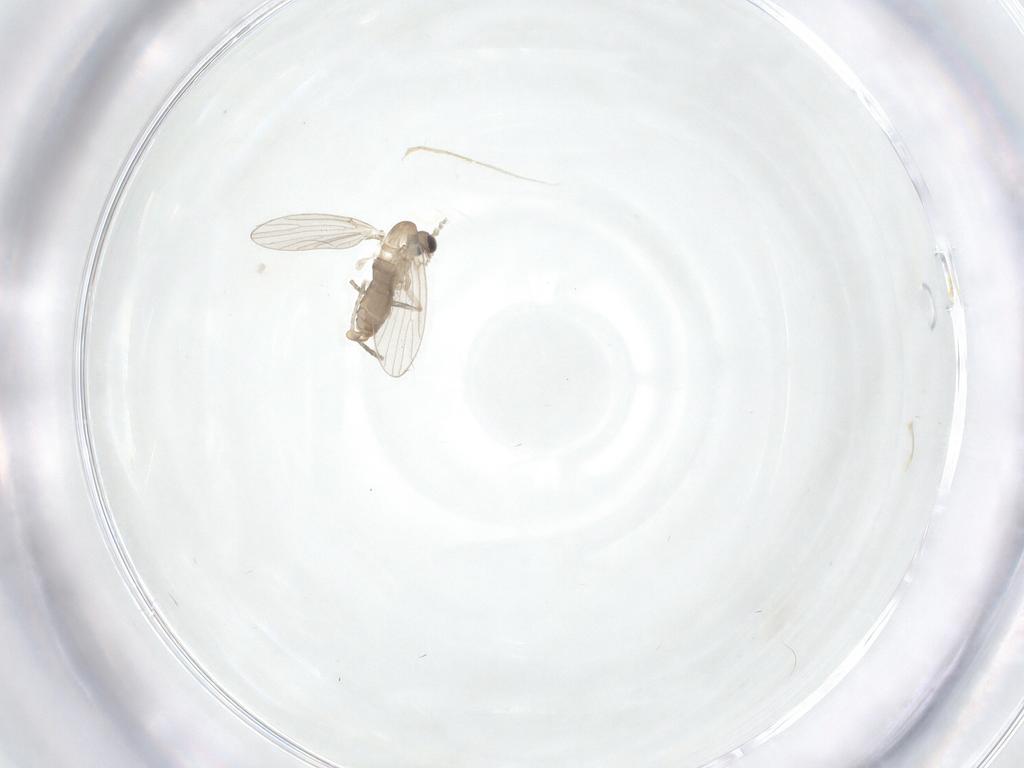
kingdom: Animalia
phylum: Arthropoda
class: Insecta
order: Diptera
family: Psychodidae
